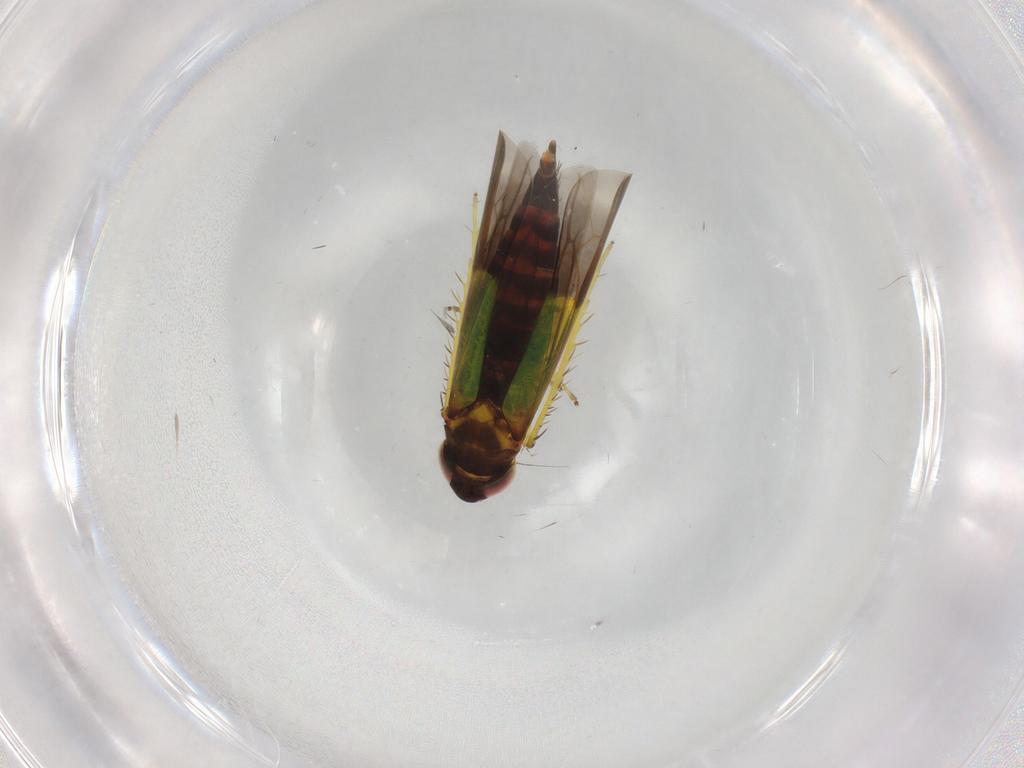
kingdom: Animalia
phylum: Arthropoda
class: Insecta
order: Hemiptera
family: Cicadellidae
